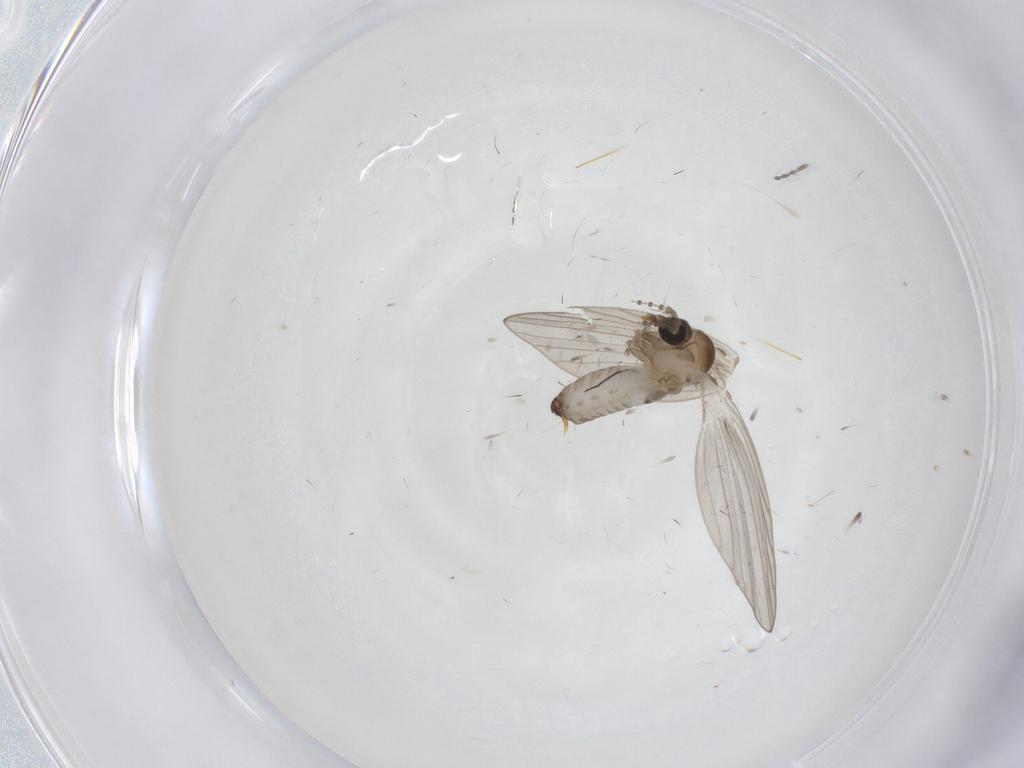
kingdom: Animalia
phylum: Arthropoda
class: Insecta
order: Diptera
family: Psychodidae
